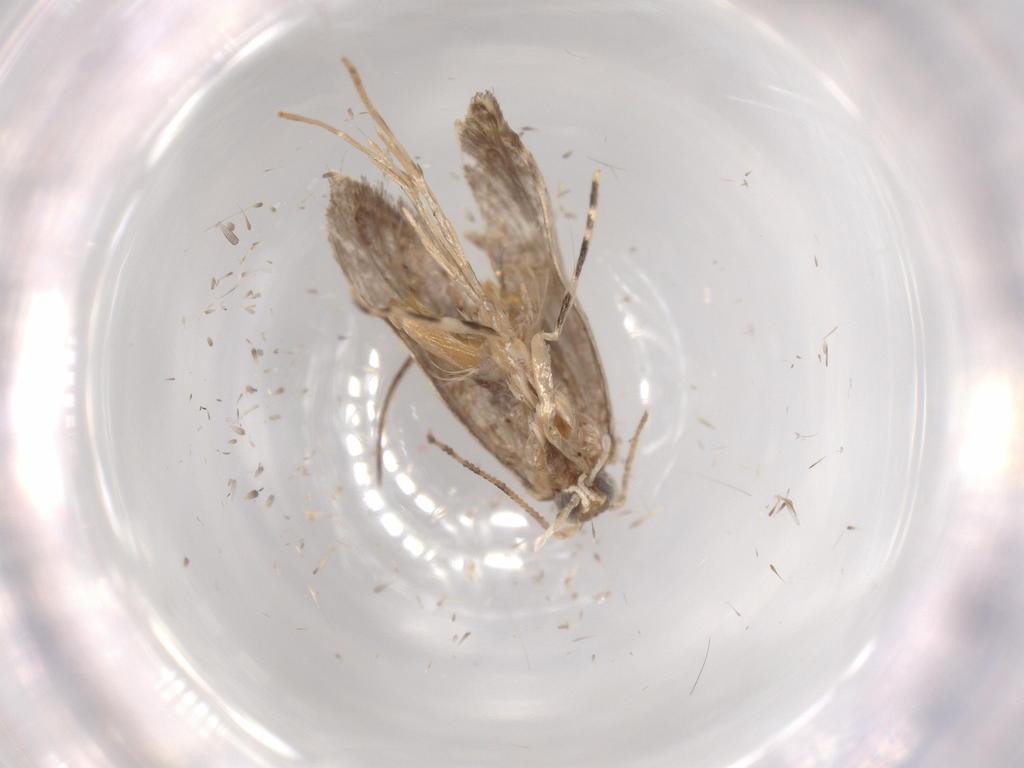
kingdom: Animalia
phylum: Arthropoda
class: Insecta
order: Lepidoptera
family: Tineidae
